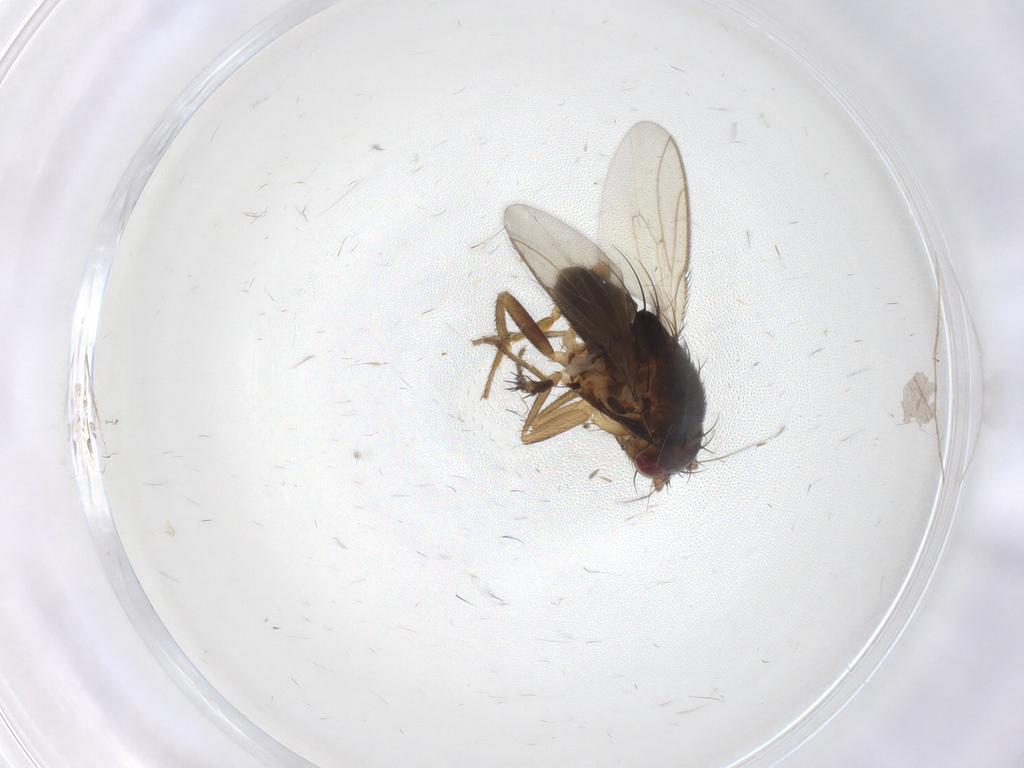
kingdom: Animalia
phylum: Arthropoda
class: Insecta
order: Diptera
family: Sphaeroceridae
